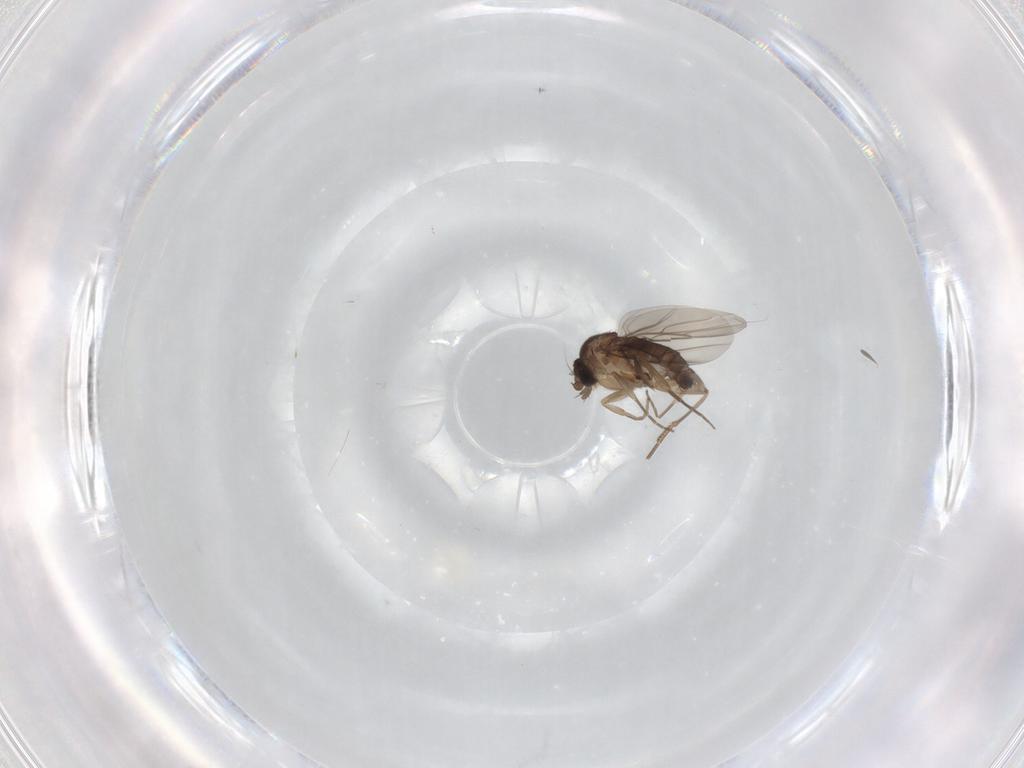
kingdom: Animalia
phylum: Arthropoda
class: Insecta
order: Diptera
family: Phoridae
